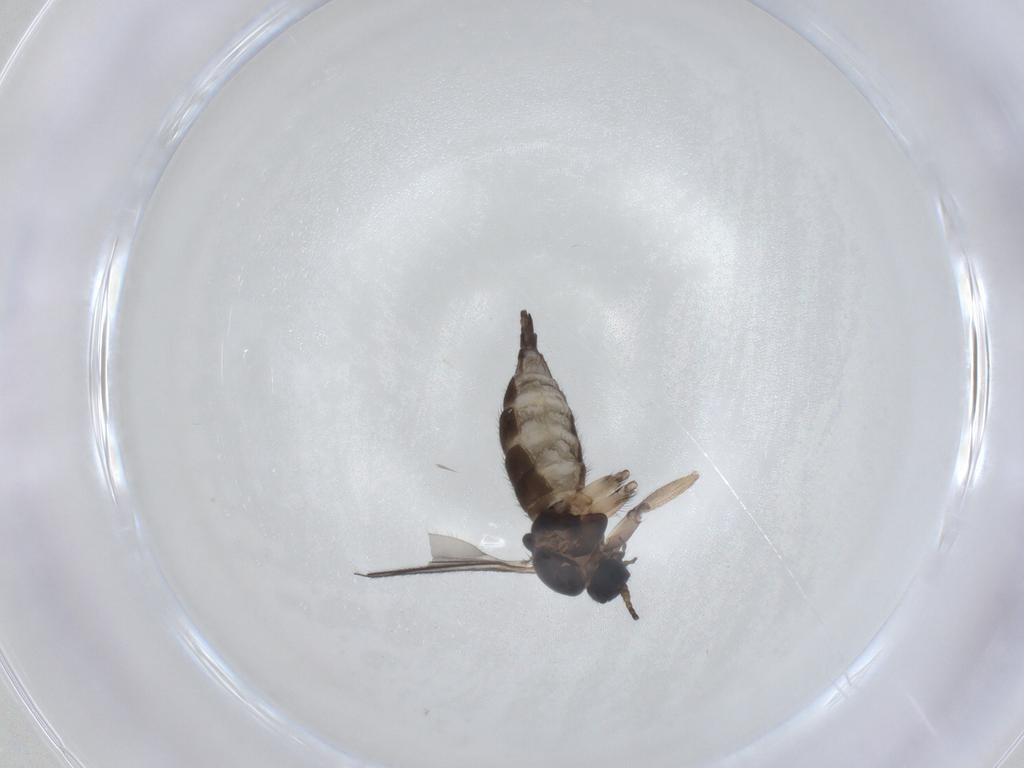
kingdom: Animalia
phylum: Arthropoda
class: Insecta
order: Diptera
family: Sciaridae
